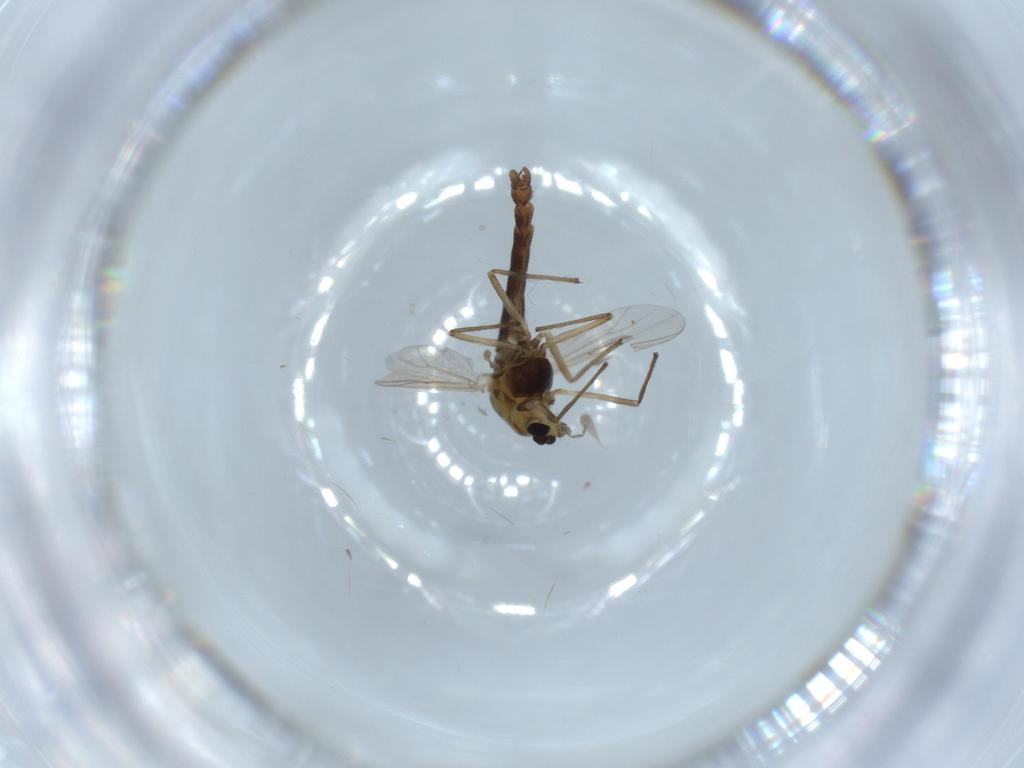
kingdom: Animalia
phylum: Arthropoda
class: Insecta
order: Diptera
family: Chironomidae
